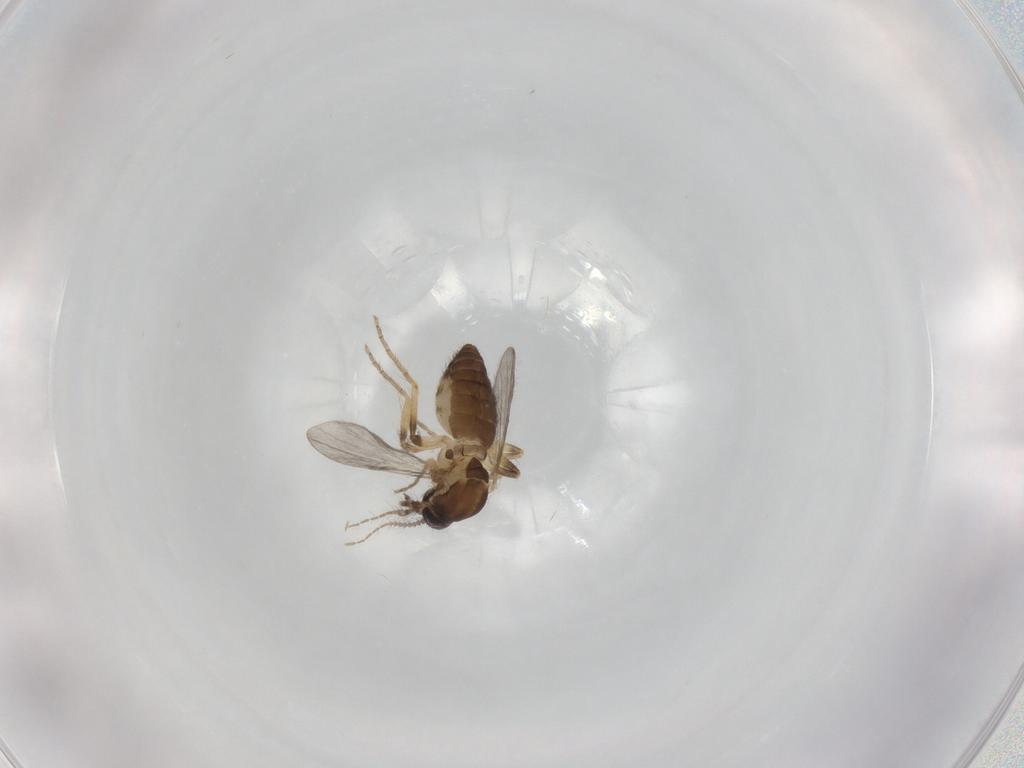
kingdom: Animalia
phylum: Arthropoda
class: Insecta
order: Diptera
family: Ceratopogonidae
